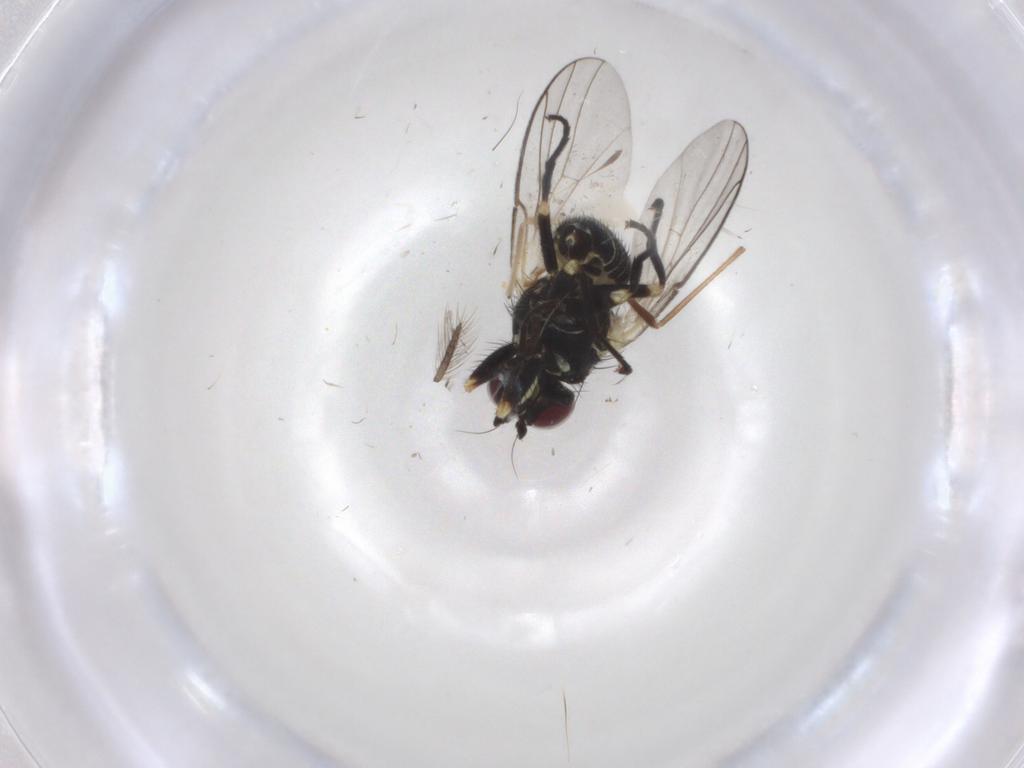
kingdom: Animalia
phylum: Arthropoda
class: Insecta
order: Diptera
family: Agromyzidae
